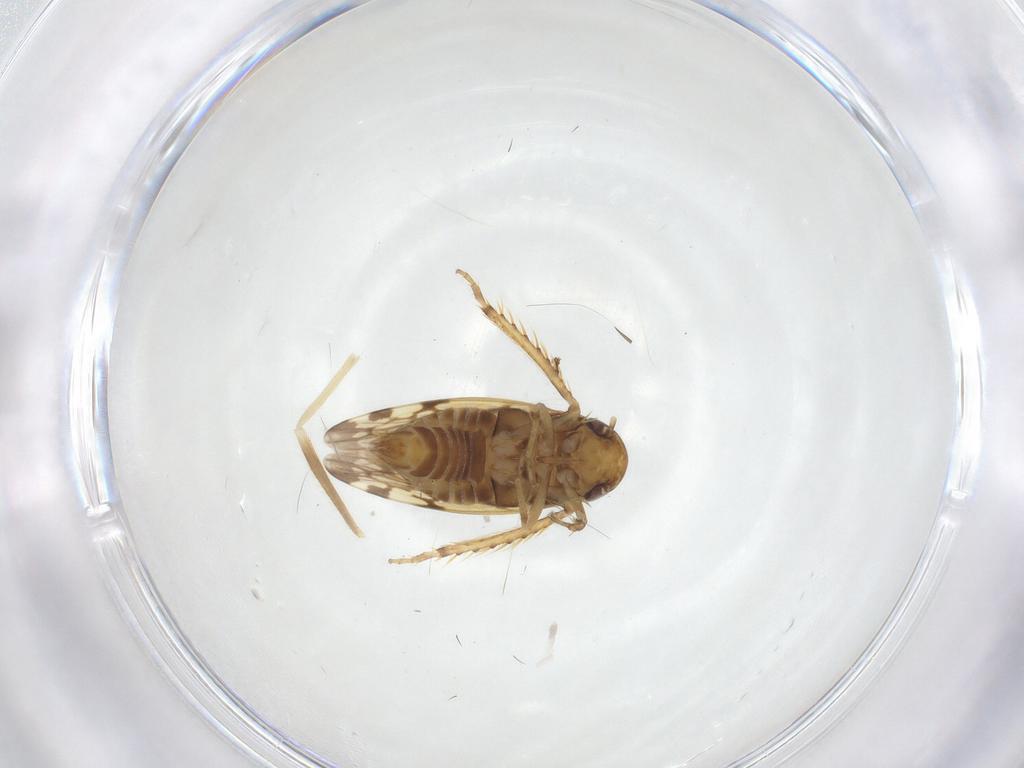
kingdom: Animalia
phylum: Arthropoda
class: Insecta
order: Hemiptera
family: Cicadellidae
